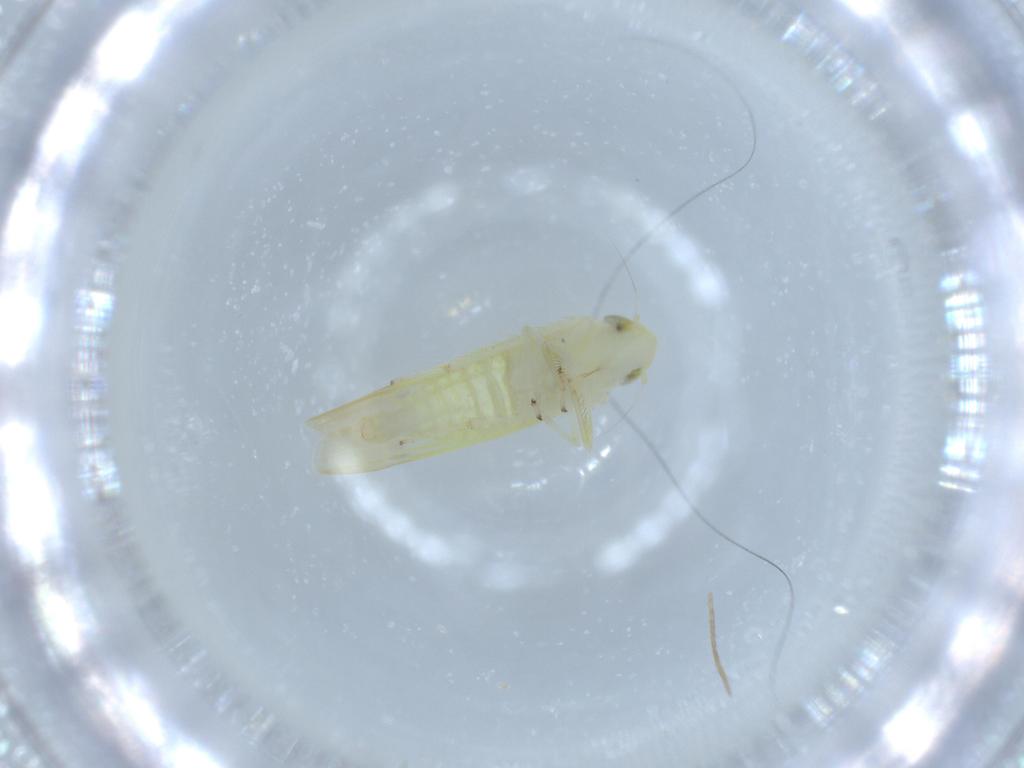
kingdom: Animalia
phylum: Arthropoda
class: Insecta
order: Hemiptera
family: Cicadellidae
